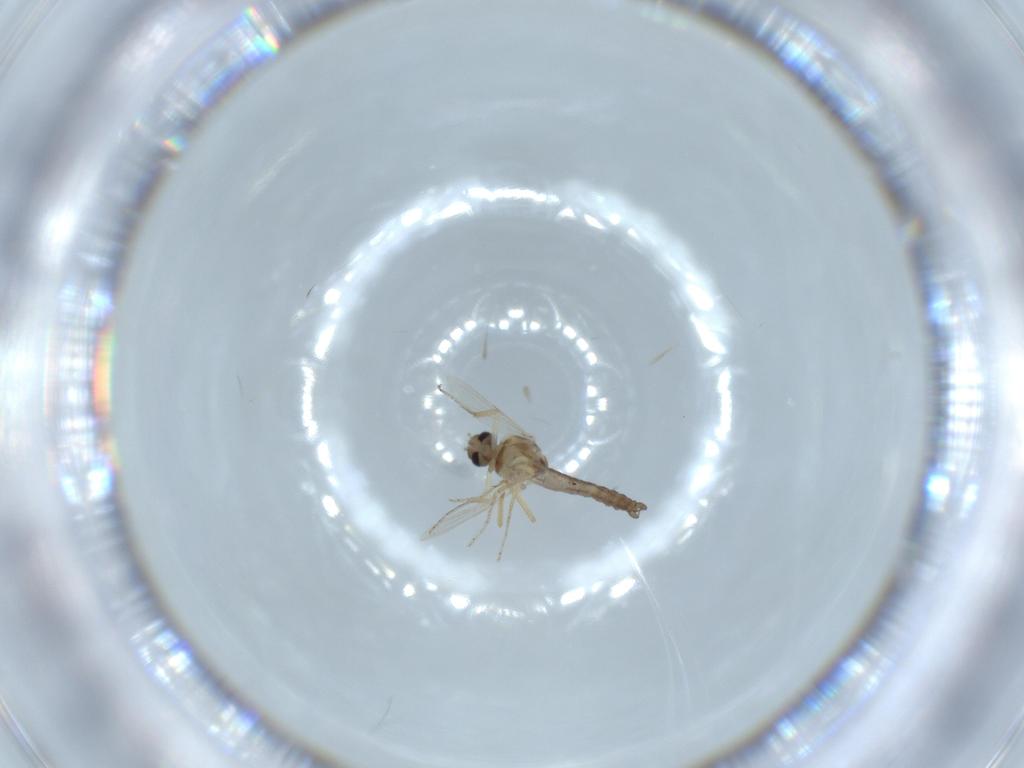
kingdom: Animalia
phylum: Arthropoda
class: Insecta
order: Diptera
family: Ceratopogonidae
